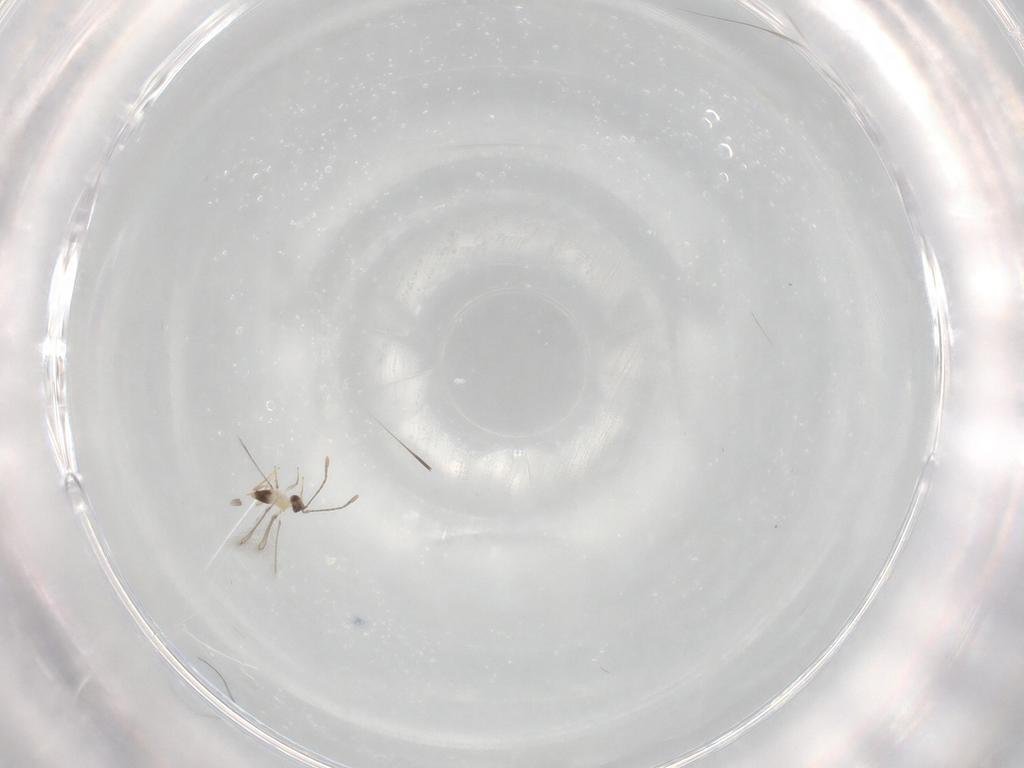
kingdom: Animalia
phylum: Arthropoda
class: Insecta
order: Hymenoptera
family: Mymaridae
